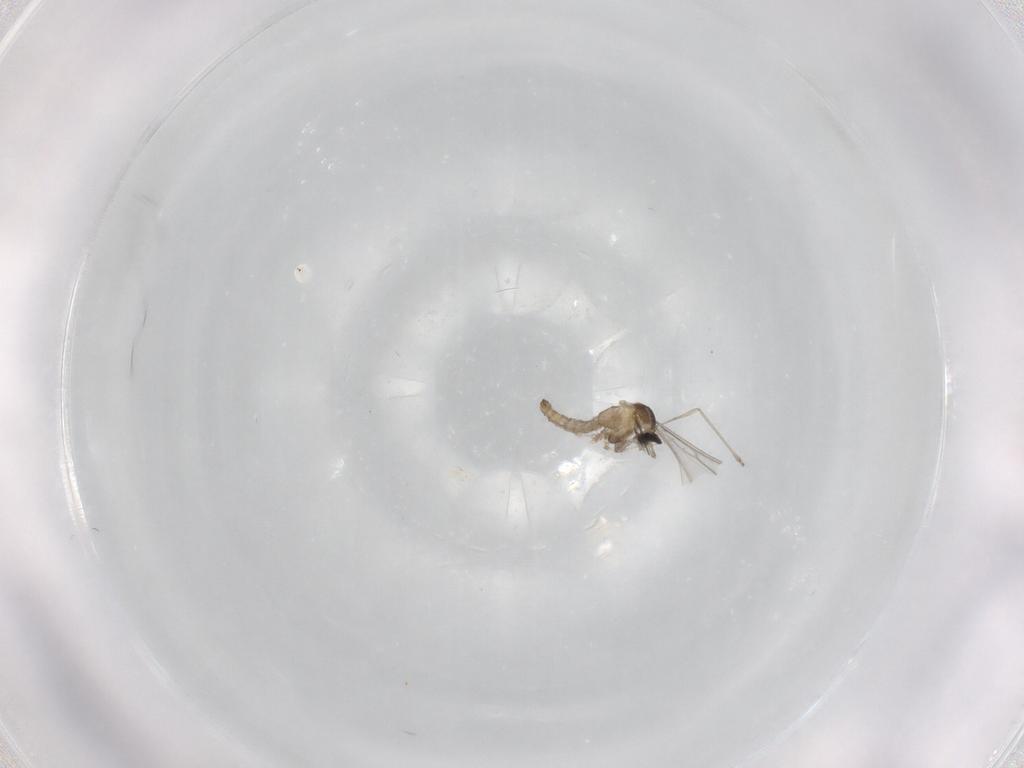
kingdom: Animalia
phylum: Arthropoda
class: Insecta
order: Diptera
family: Cecidomyiidae
